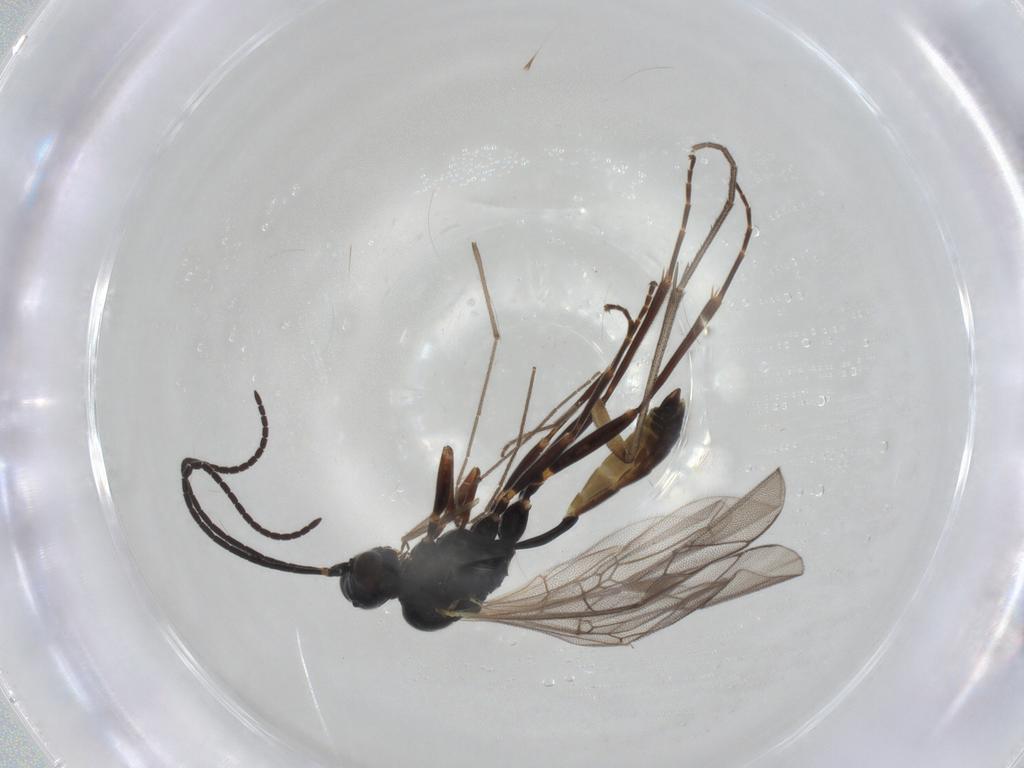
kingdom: Animalia
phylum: Arthropoda
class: Insecta
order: Hymenoptera
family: Ichneumonidae
